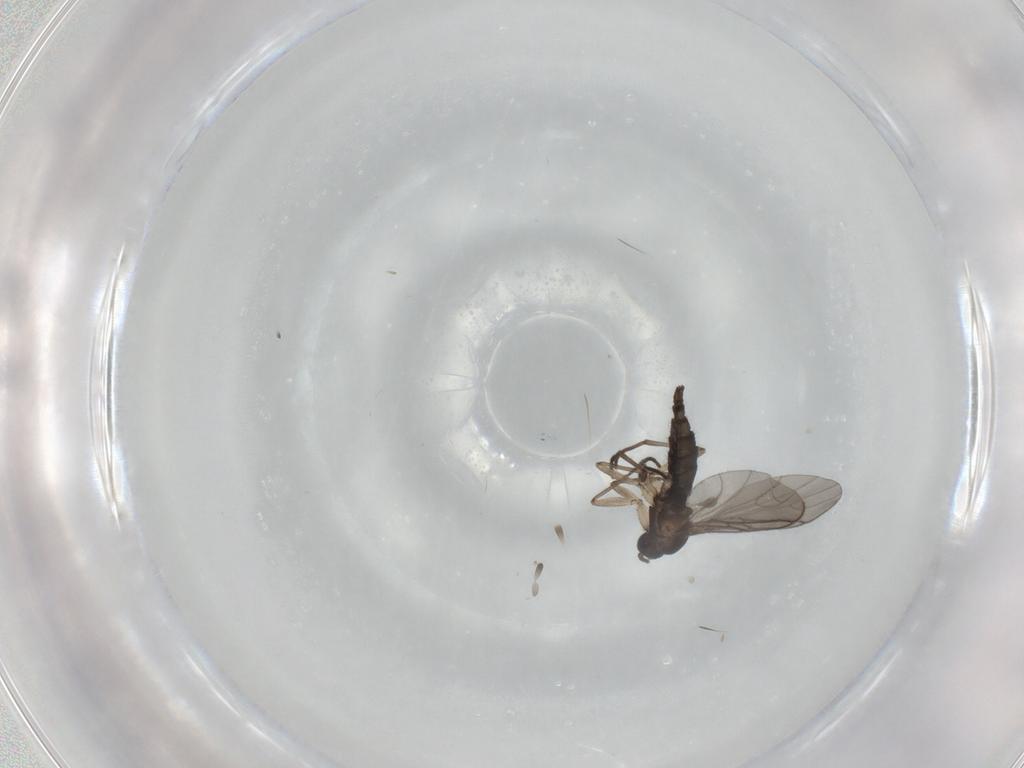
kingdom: Animalia
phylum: Arthropoda
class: Insecta
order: Diptera
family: Sciaridae
